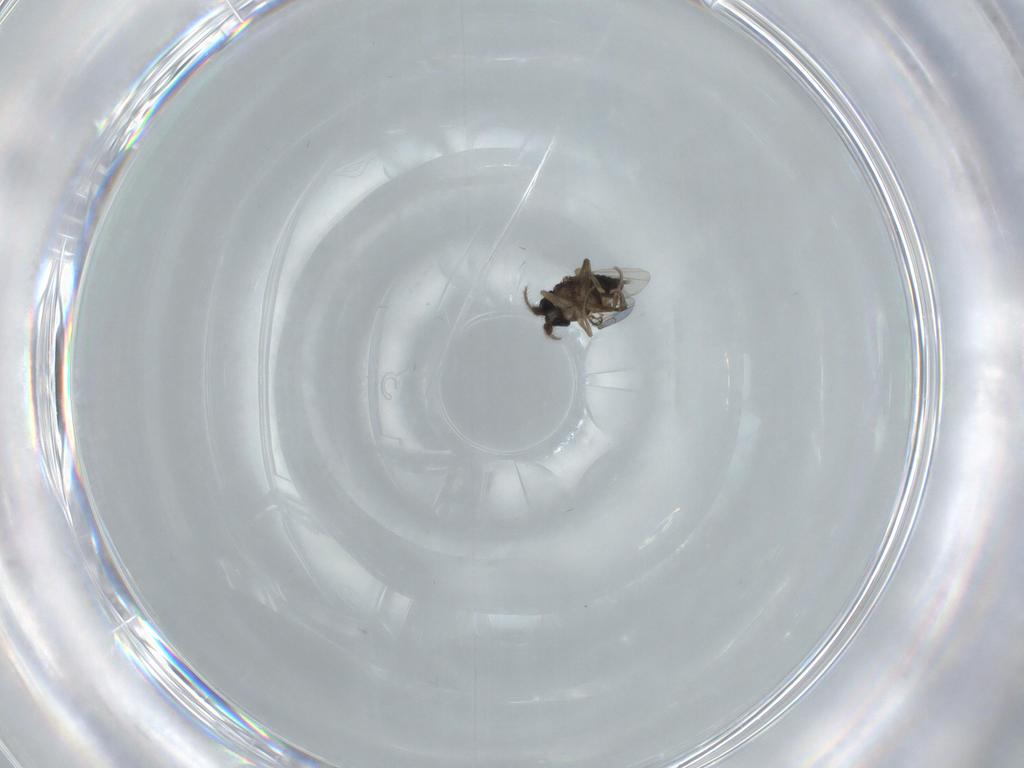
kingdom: Animalia
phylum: Arthropoda
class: Insecta
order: Diptera
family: Phoridae
